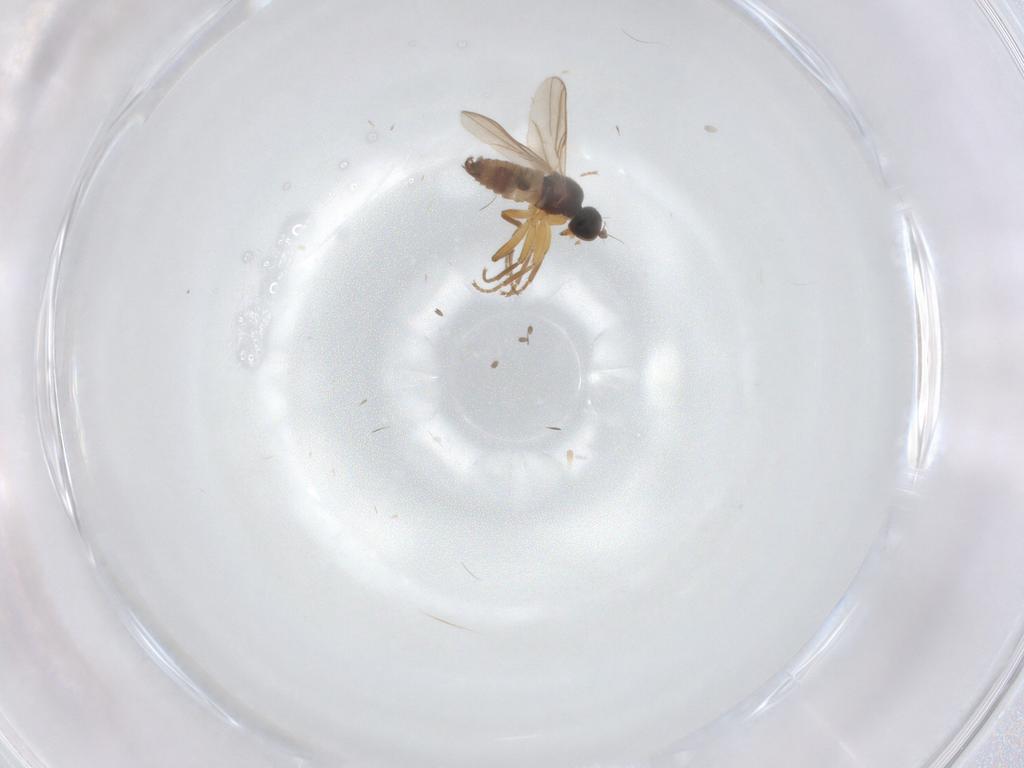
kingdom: Animalia
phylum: Arthropoda
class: Insecta
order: Diptera
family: Hybotidae
